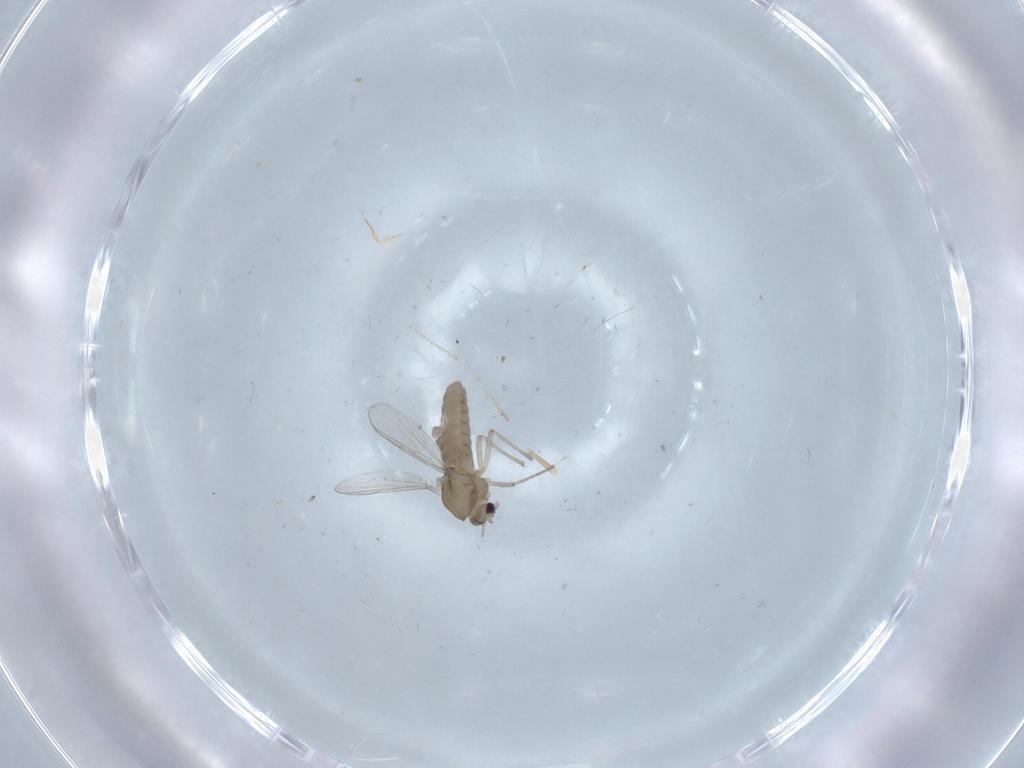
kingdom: Animalia
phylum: Arthropoda
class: Insecta
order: Diptera
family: Chironomidae
